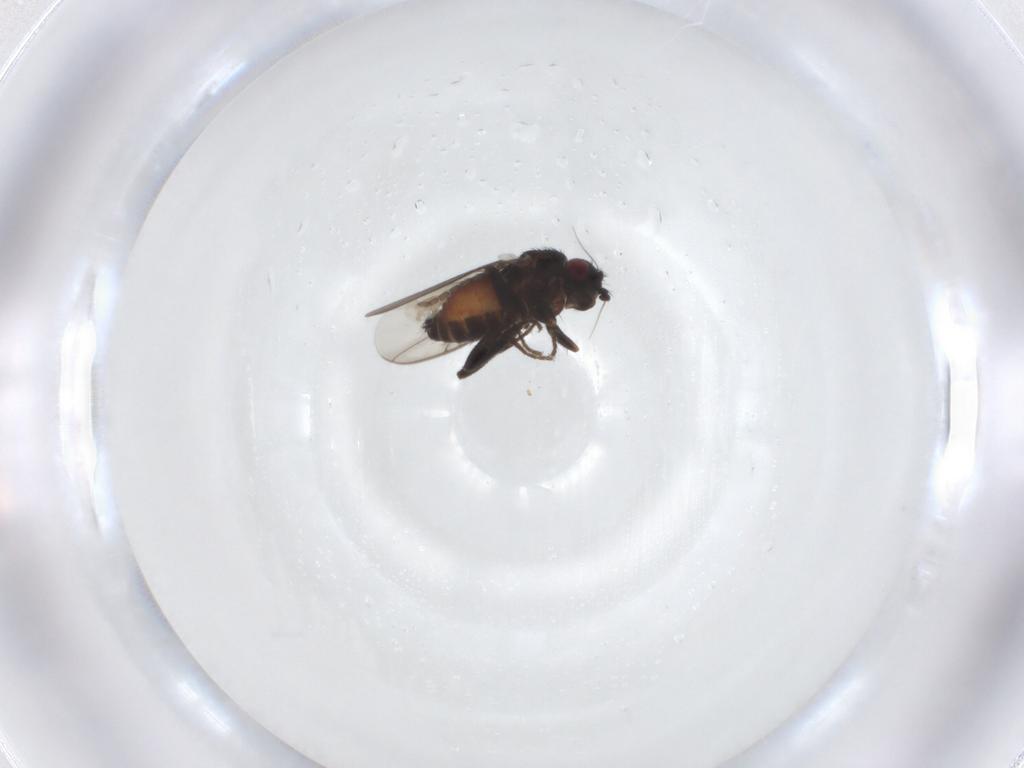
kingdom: Animalia
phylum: Arthropoda
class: Insecta
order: Diptera
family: Sphaeroceridae
